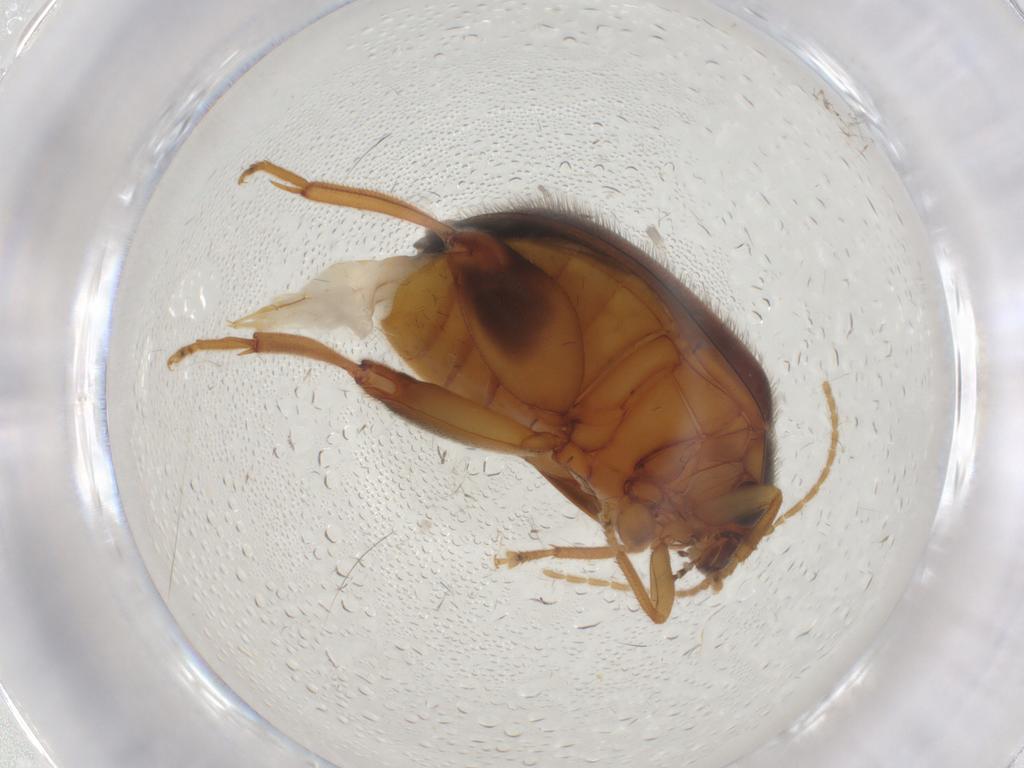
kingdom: Animalia
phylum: Arthropoda
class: Insecta
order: Coleoptera
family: Scirtidae
